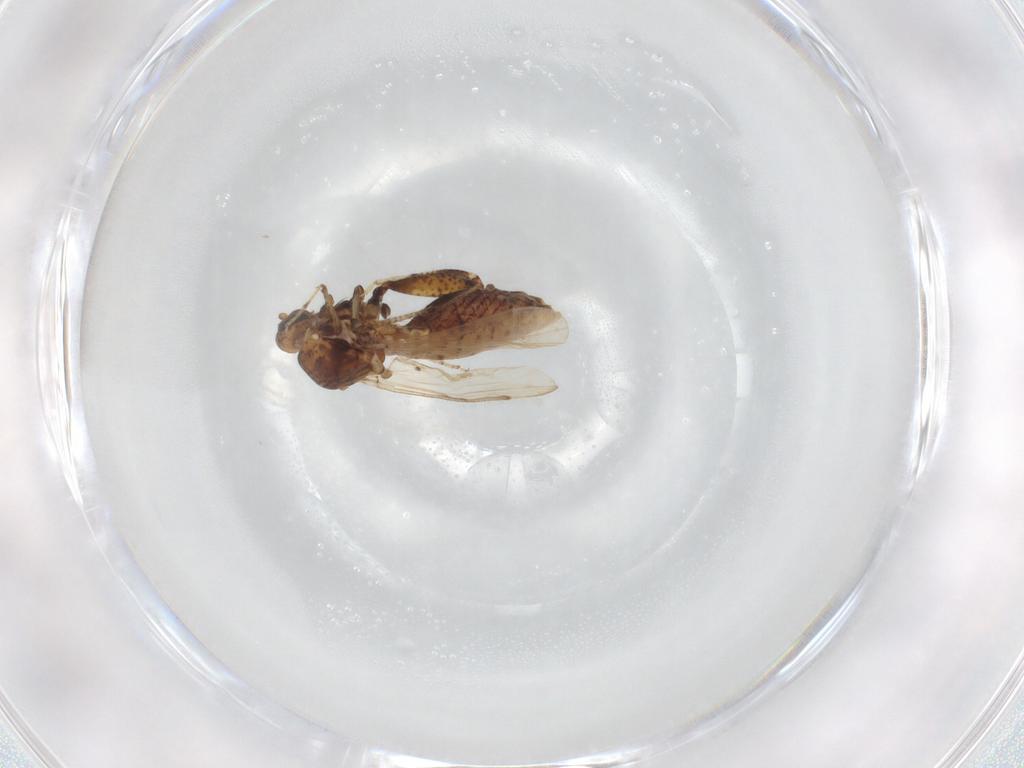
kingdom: Animalia
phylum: Arthropoda
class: Insecta
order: Diptera
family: Ceratopogonidae
